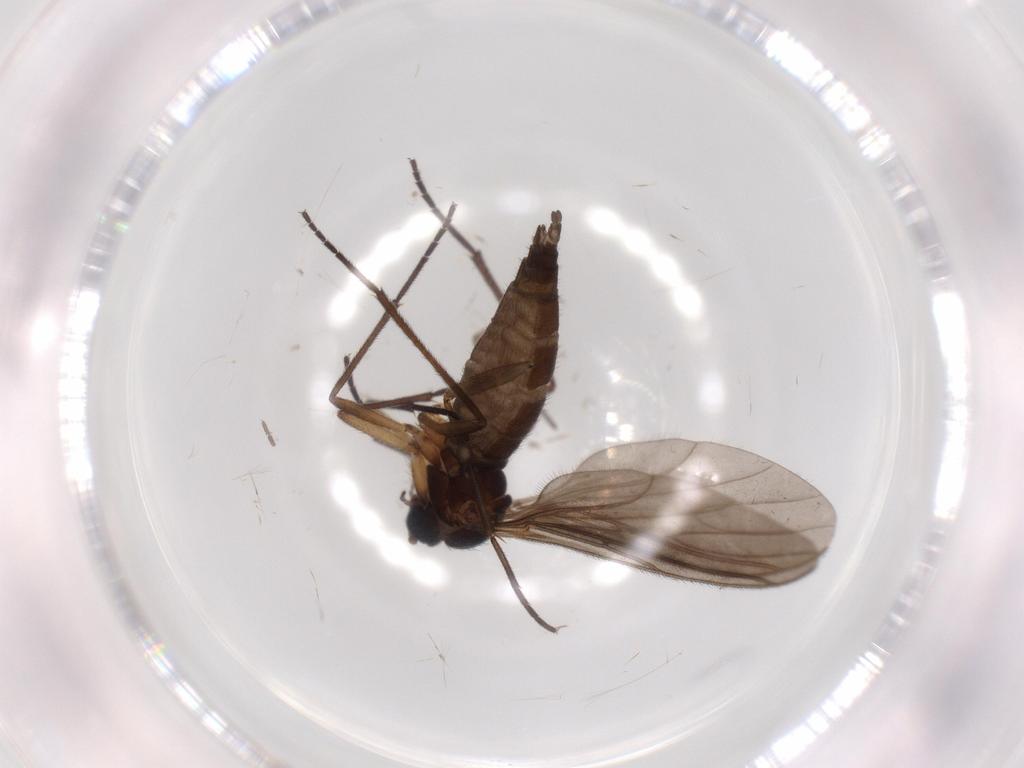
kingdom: Animalia
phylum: Arthropoda
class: Insecta
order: Diptera
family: Sciaridae
